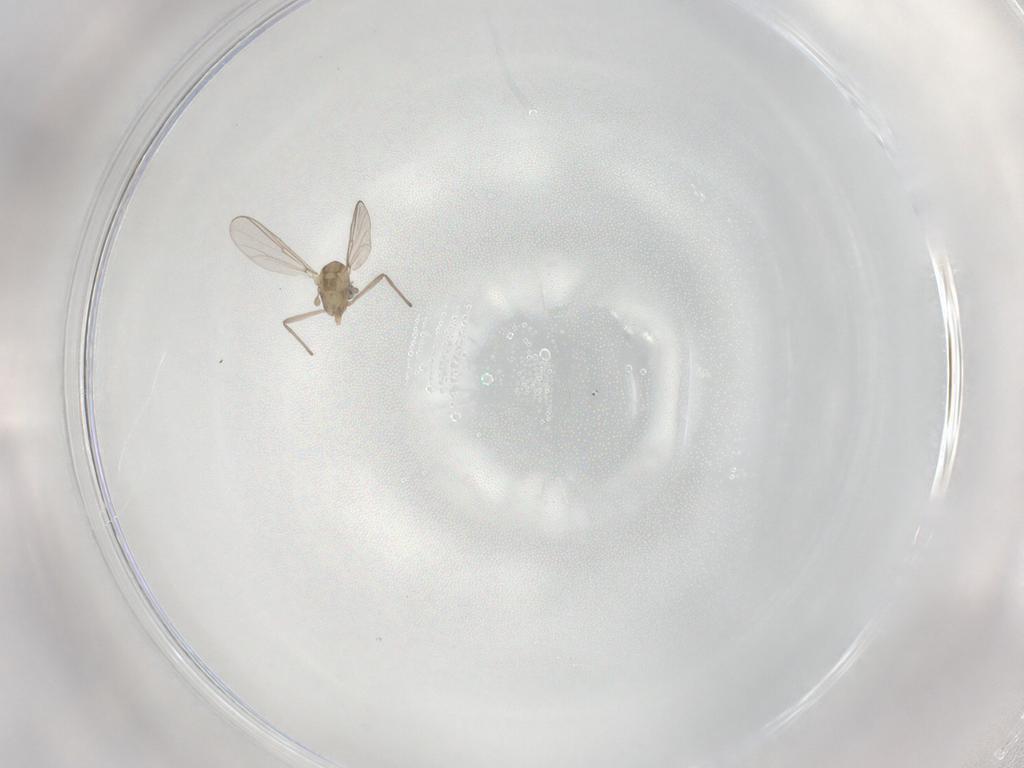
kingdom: Animalia
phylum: Arthropoda
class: Insecta
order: Diptera
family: Chironomidae
